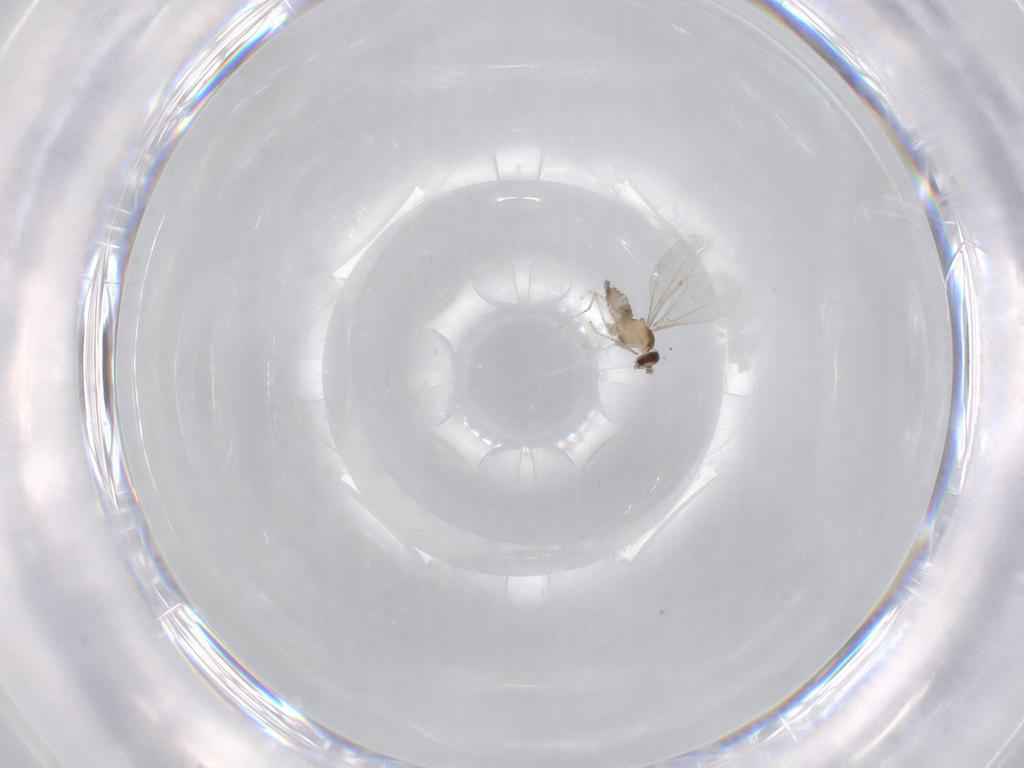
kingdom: Animalia
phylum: Arthropoda
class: Insecta
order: Diptera
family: Cecidomyiidae
